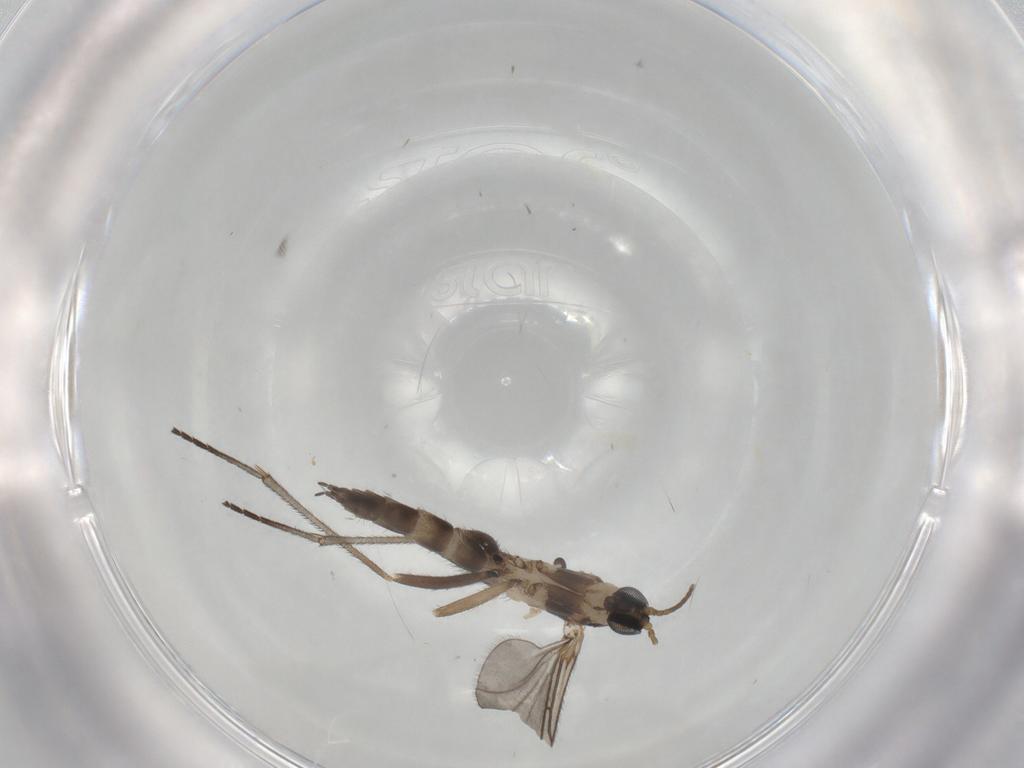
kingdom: Animalia
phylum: Arthropoda
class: Insecta
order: Diptera
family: Sciaridae
